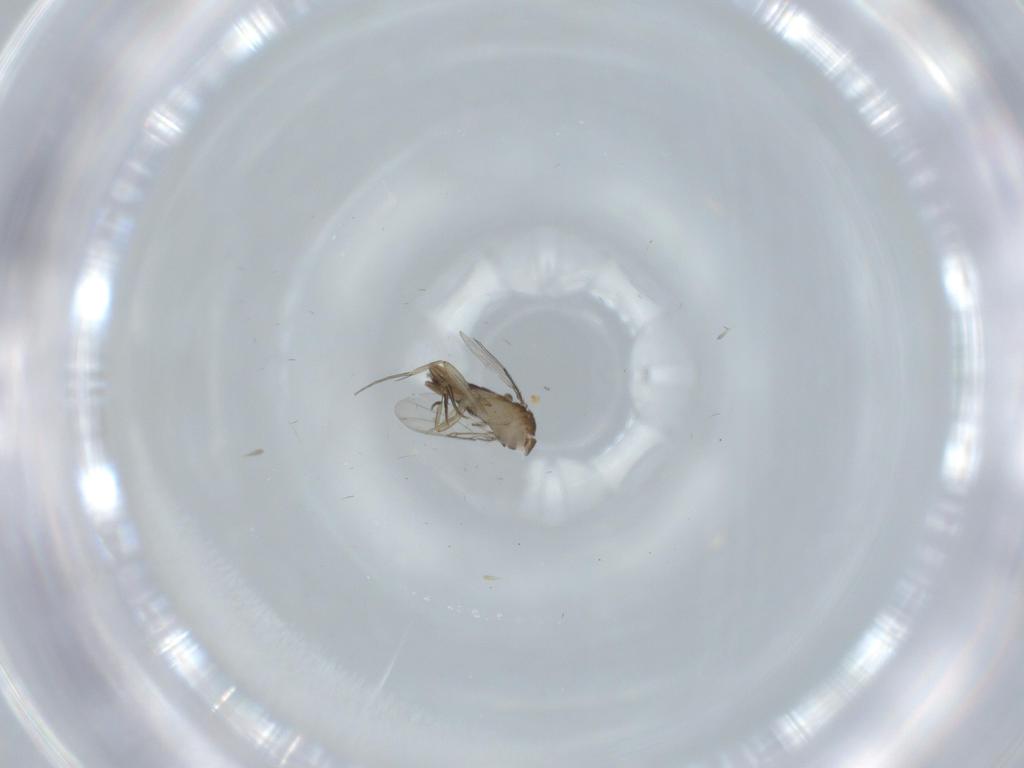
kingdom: Animalia
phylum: Arthropoda
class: Insecta
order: Diptera
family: Phoridae
